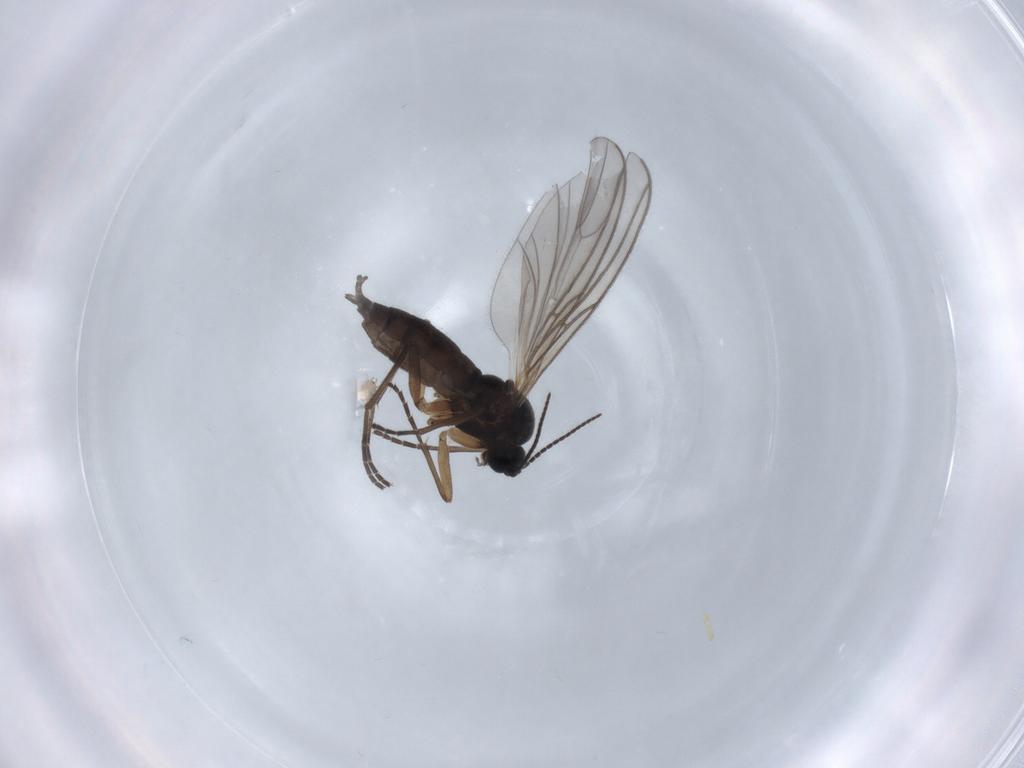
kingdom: Animalia
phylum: Arthropoda
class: Insecta
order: Diptera
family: Sciaridae
